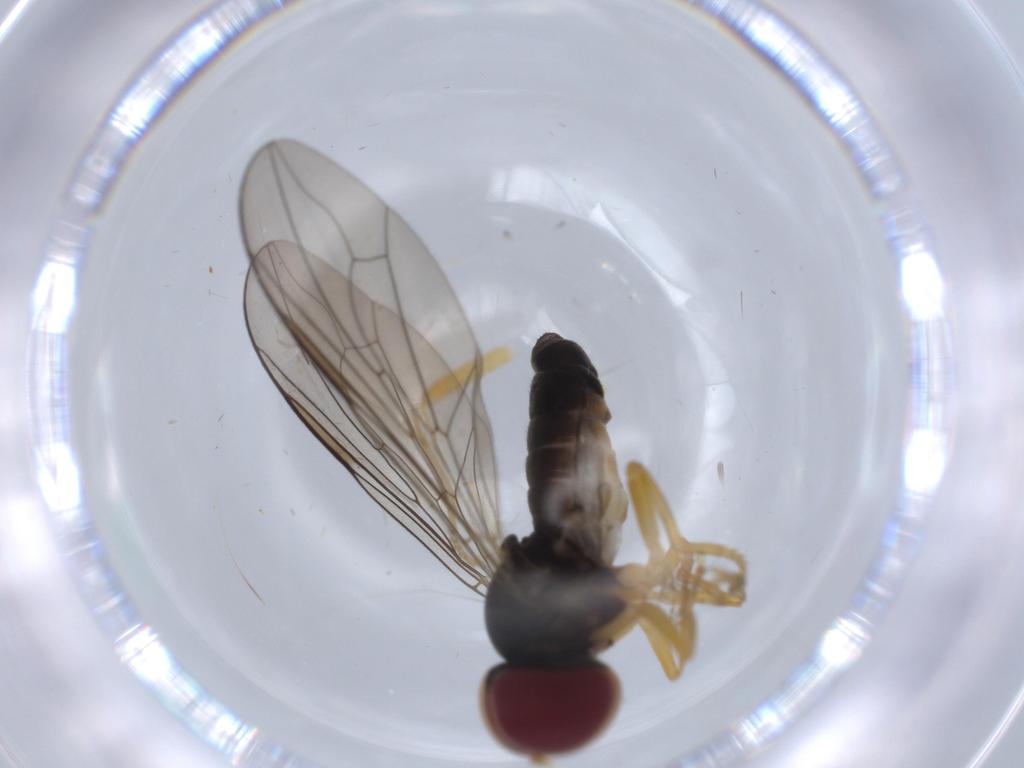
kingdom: Animalia
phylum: Arthropoda
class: Insecta
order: Diptera
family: Pipunculidae
